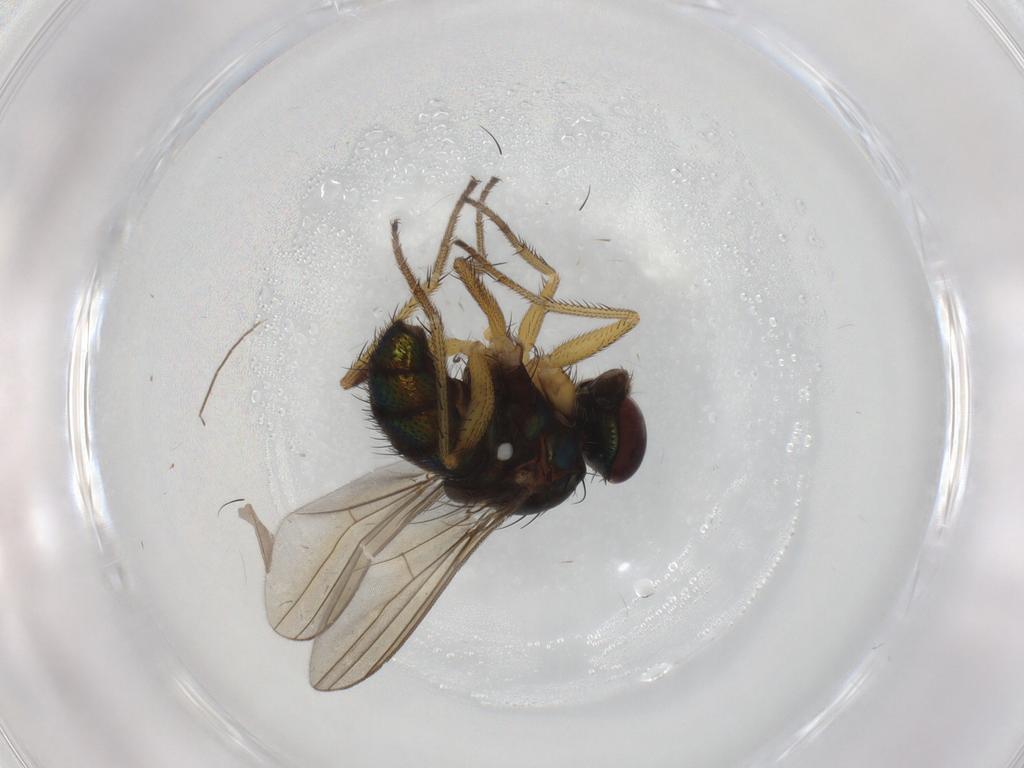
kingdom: Animalia
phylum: Arthropoda
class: Insecta
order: Diptera
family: Dolichopodidae
